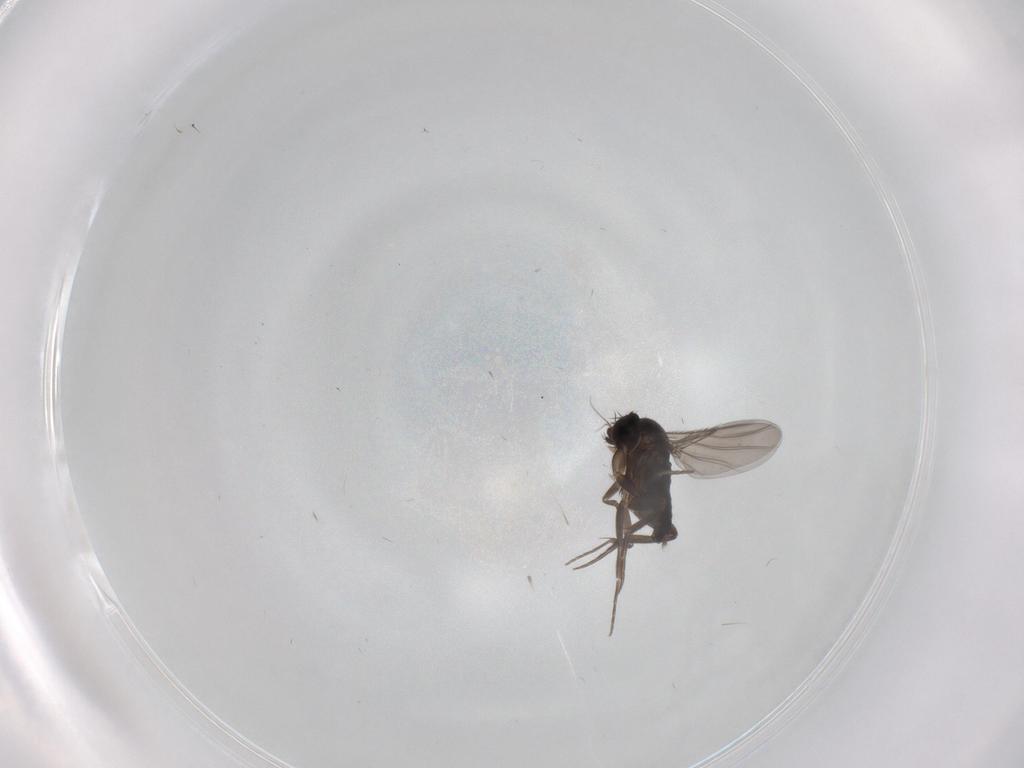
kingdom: Animalia
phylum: Arthropoda
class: Insecta
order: Diptera
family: Phoridae
